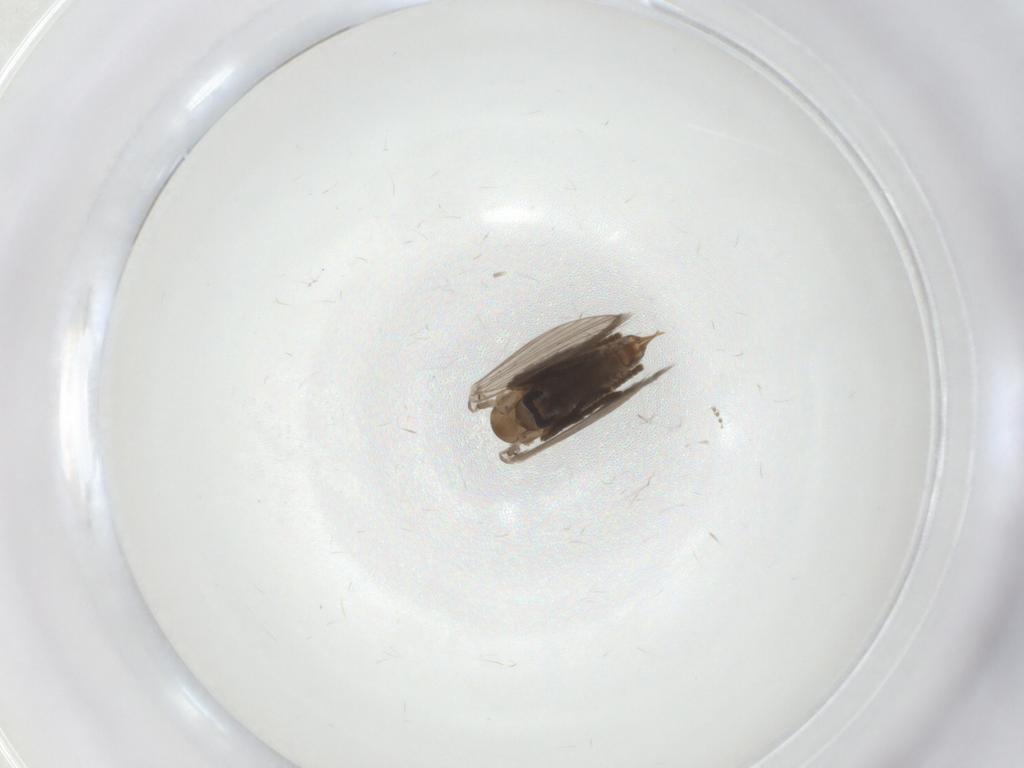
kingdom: Animalia
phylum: Arthropoda
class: Insecta
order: Diptera
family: Psychodidae
